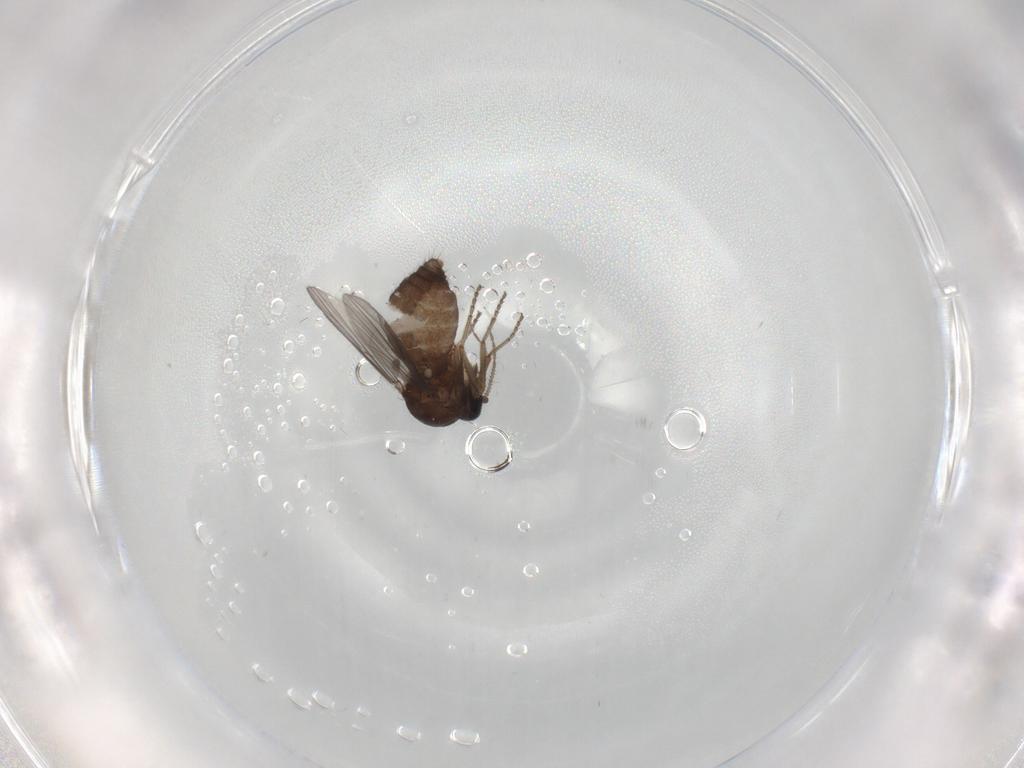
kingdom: Animalia
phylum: Arthropoda
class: Insecta
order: Diptera
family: Ceratopogonidae
